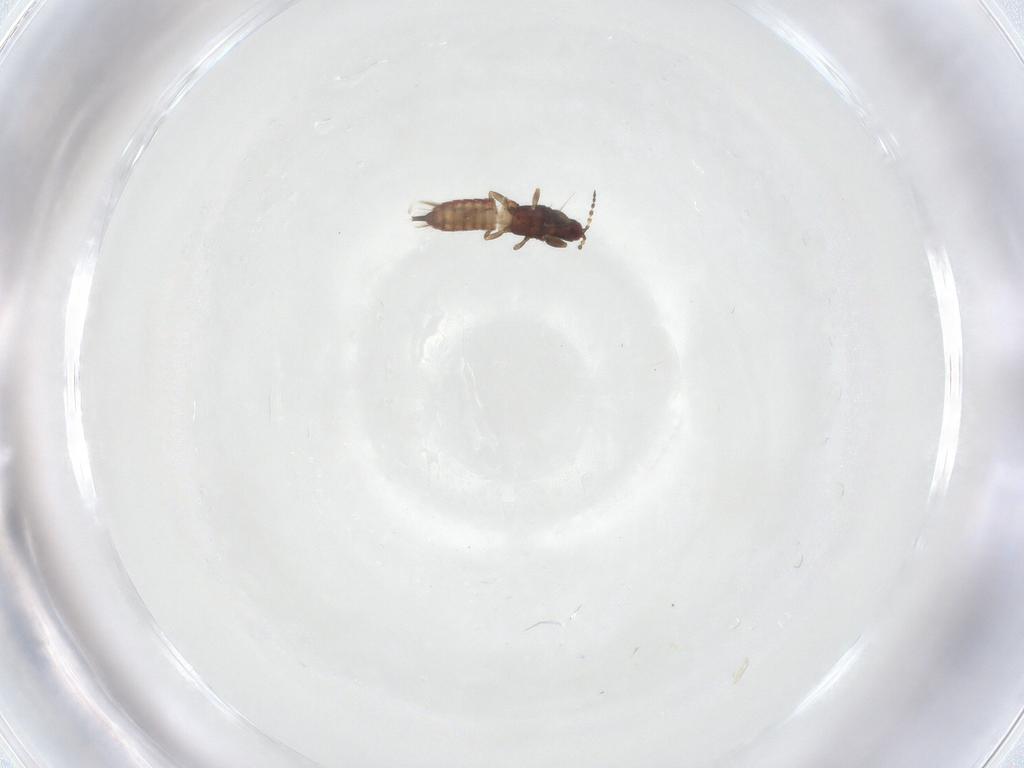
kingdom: Animalia
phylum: Arthropoda
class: Insecta
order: Thysanoptera
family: Phlaeothripidae
